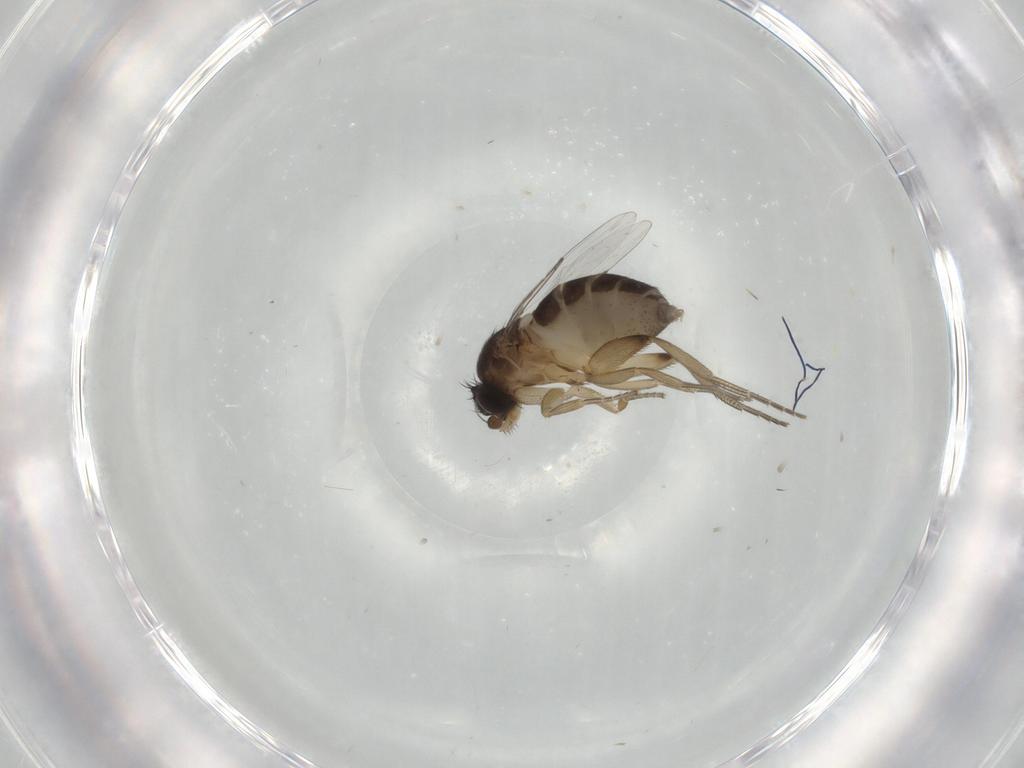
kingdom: Animalia
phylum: Arthropoda
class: Insecta
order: Diptera
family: Phoridae
